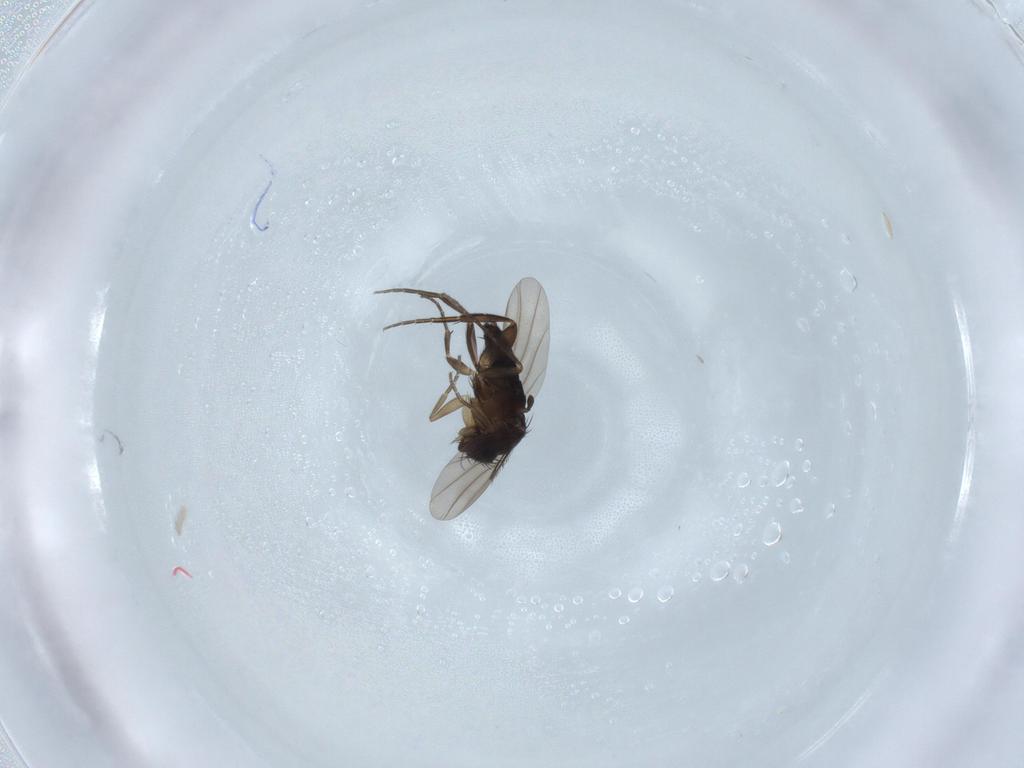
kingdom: Animalia
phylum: Arthropoda
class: Insecta
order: Diptera
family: Phoridae
